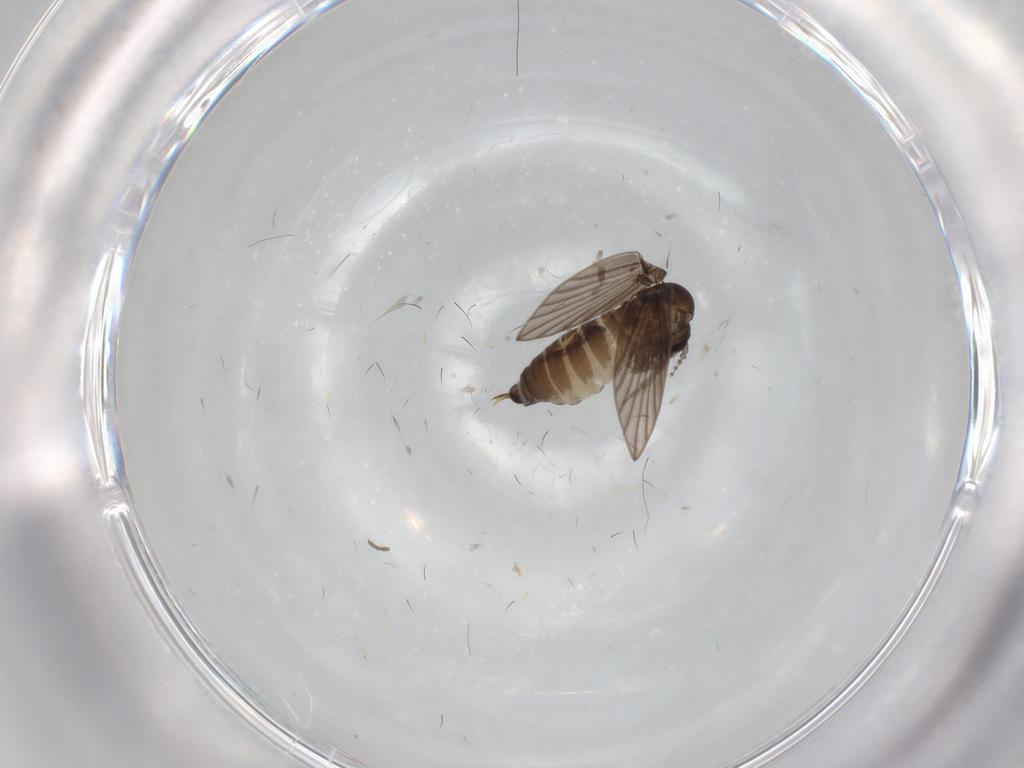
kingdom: Animalia
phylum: Arthropoda
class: Insecta
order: Diptera
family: Psychodidae
